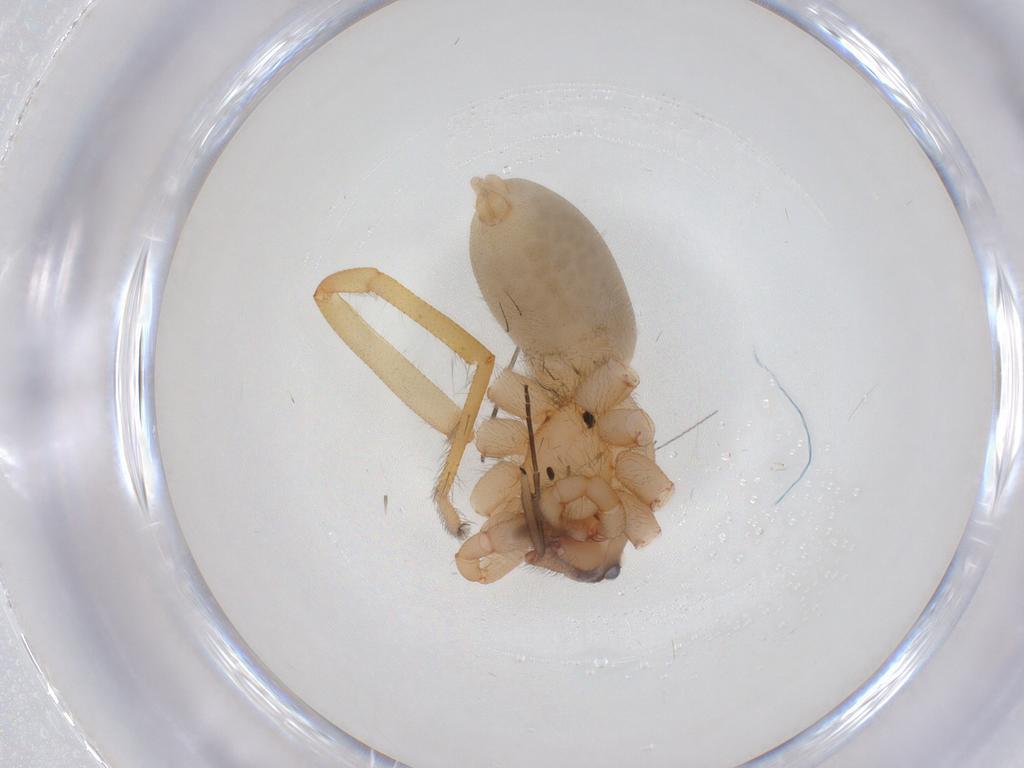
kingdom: Animalia
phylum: Arthropoda
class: Arachnida
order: Araneae
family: Dysderidae
